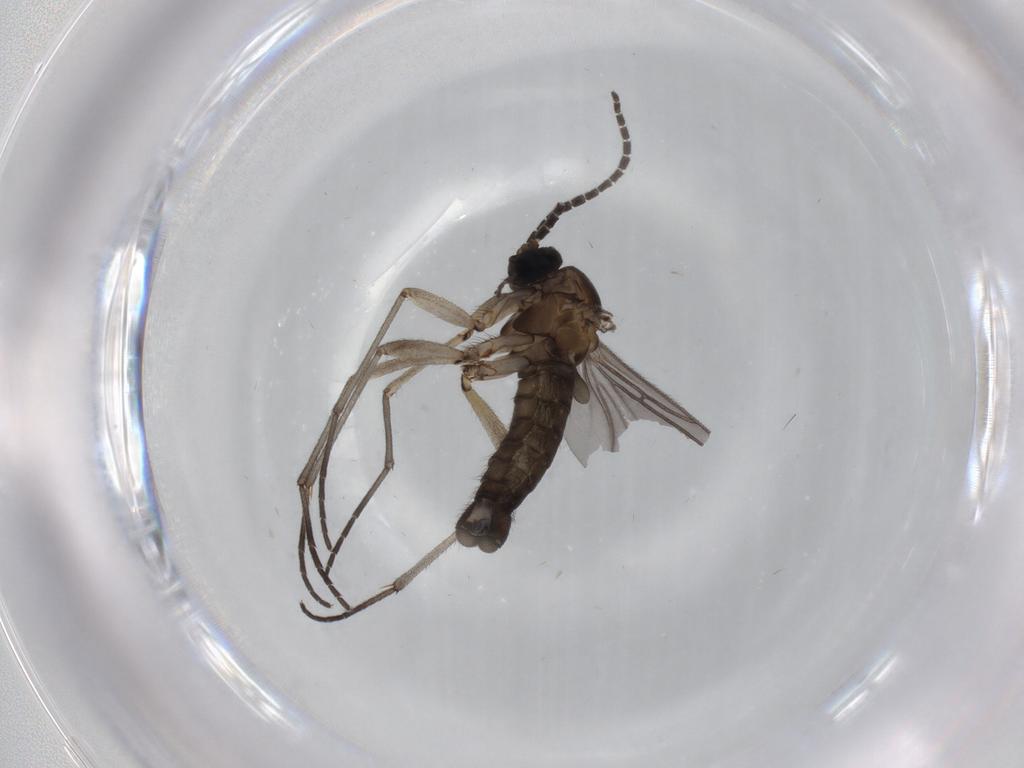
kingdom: Animalia
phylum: Arthropoda
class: Insecta
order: Diptera
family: Sciaridae
